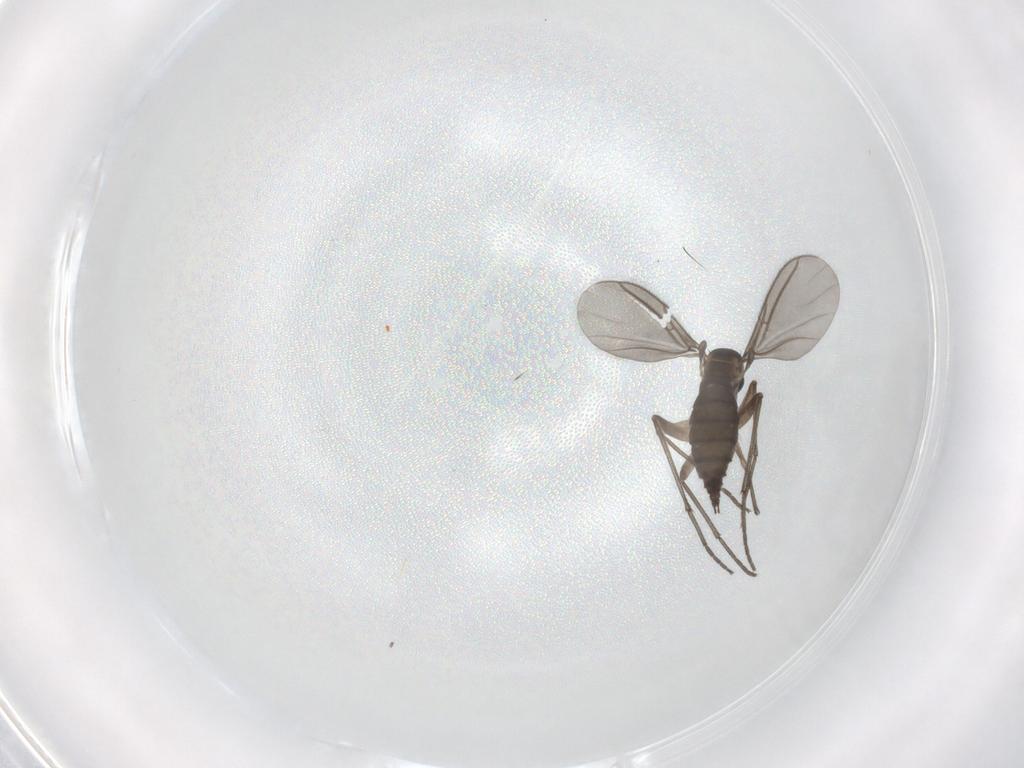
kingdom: Animalia
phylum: Arthropoda
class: Insecta
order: Diptera
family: Sciaridae
